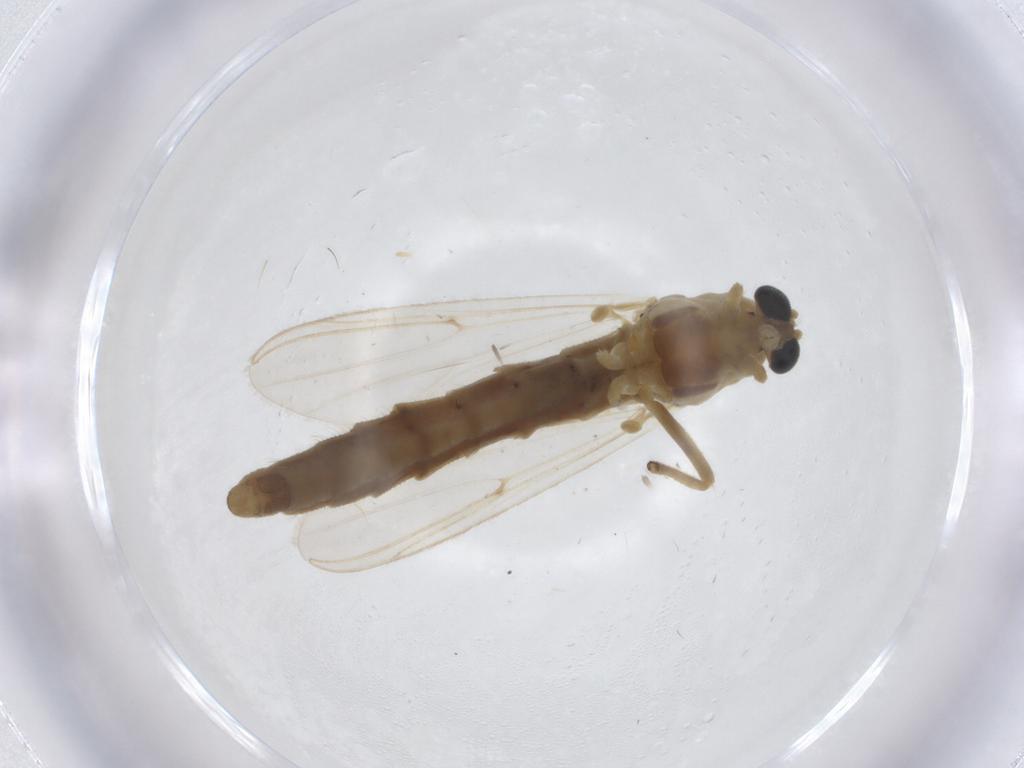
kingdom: Animalia
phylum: Arthropoda
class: Insecta
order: Diptera
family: Chironomidae
